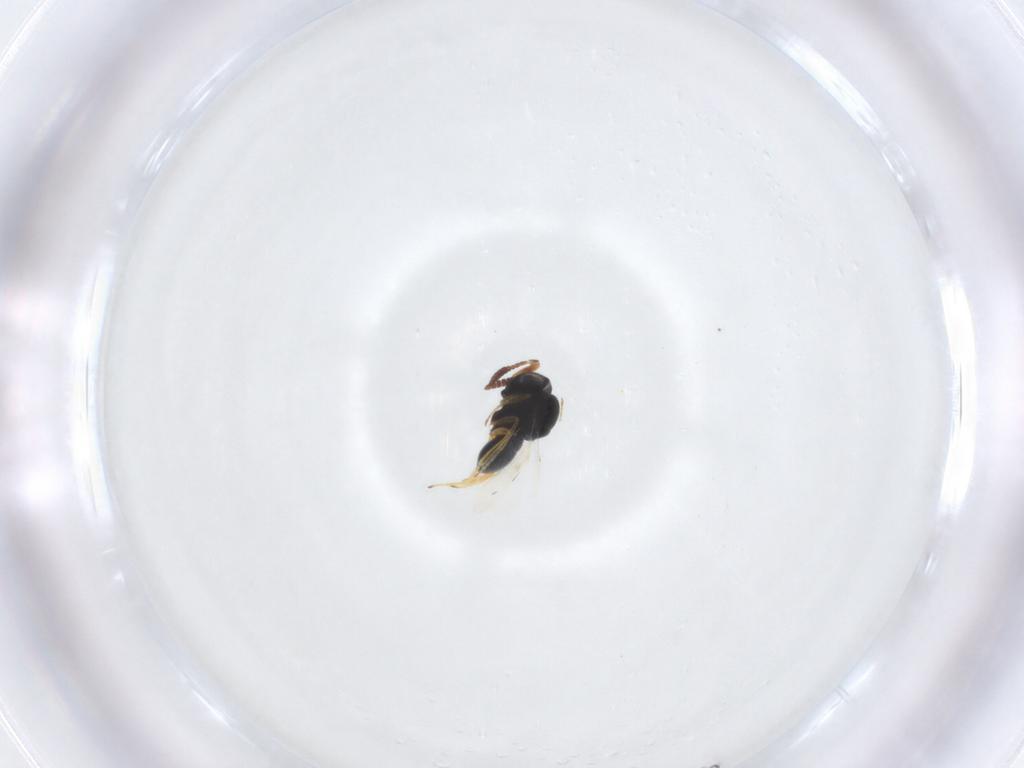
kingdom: Animalia
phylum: Arthropoda
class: Insecta
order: Hymenoptera
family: Scelionidae
